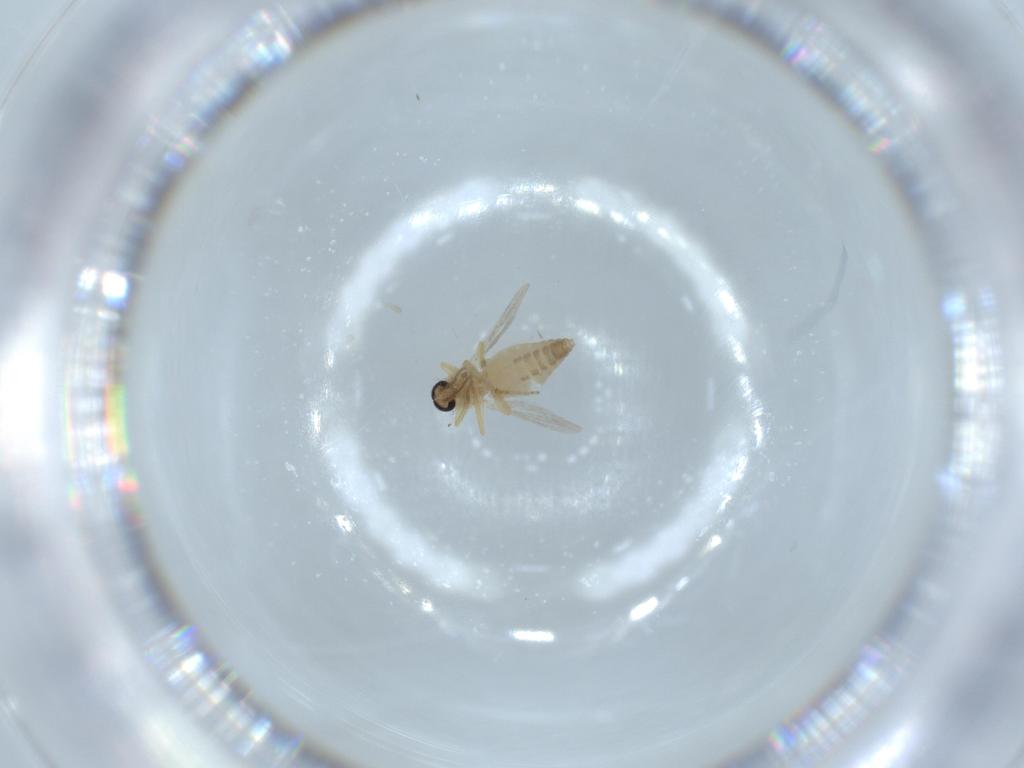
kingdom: Animalia
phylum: Arthropoda
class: Insecta
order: Diptera
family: Ceratopogonidae
